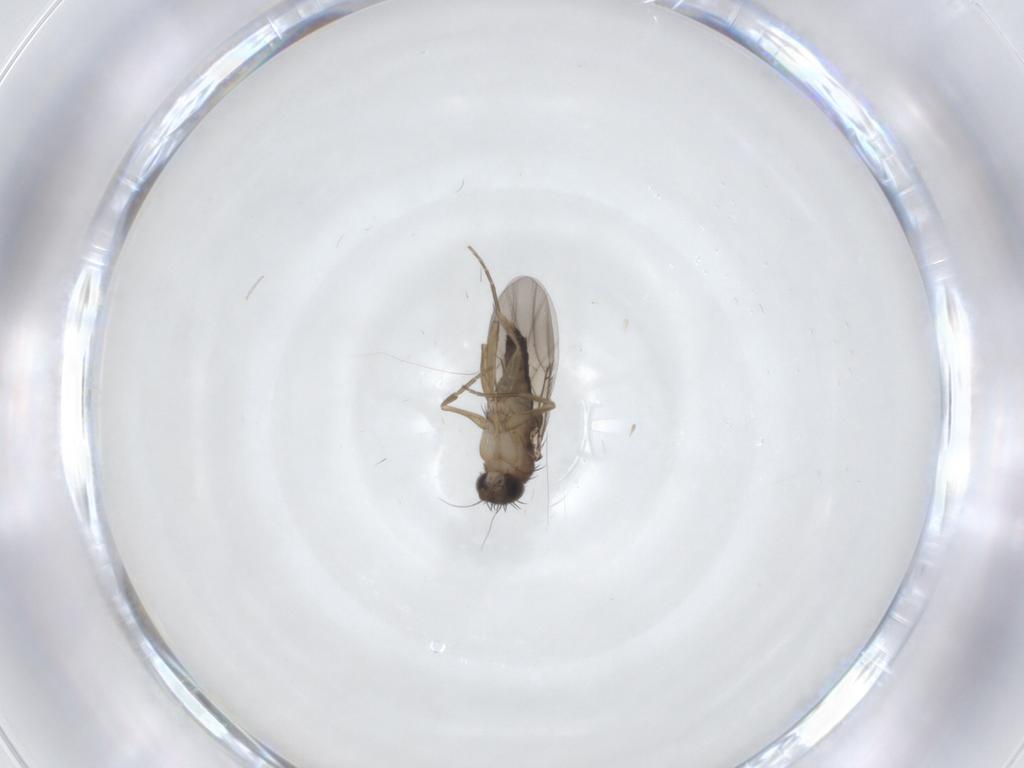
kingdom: Animalia
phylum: Arthropoda
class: Insecta
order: Diptera
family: Phoridae
